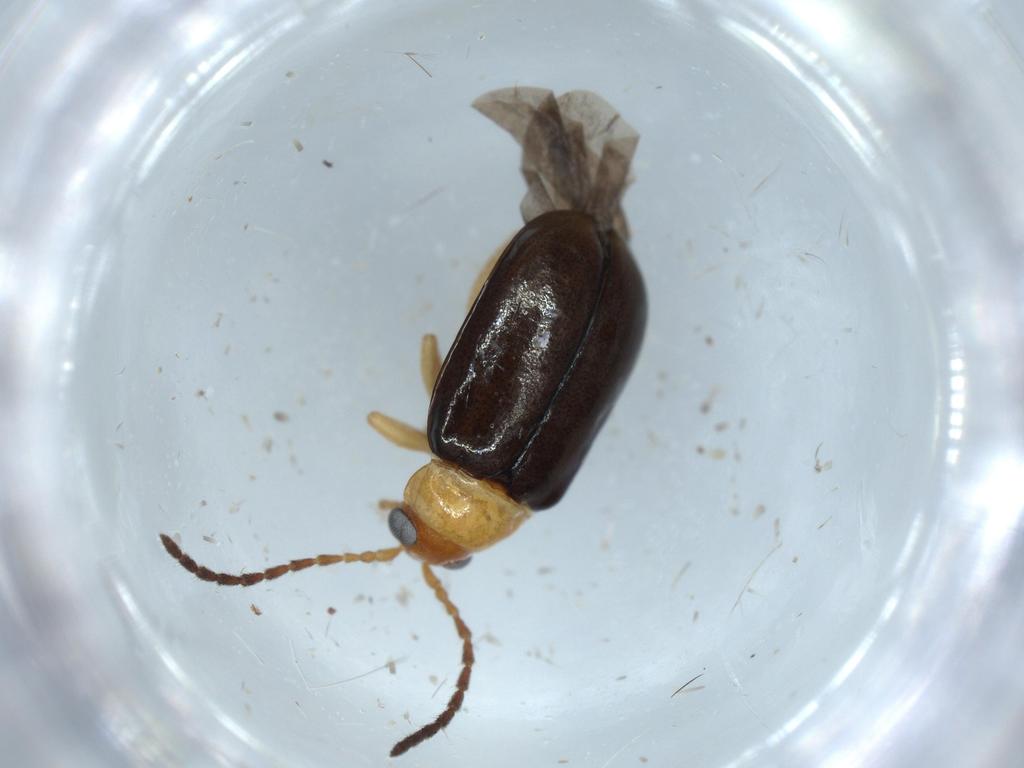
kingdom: Animalia
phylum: Arthropoda
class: Insecta
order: Coleoptera
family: Chrysomelidae
